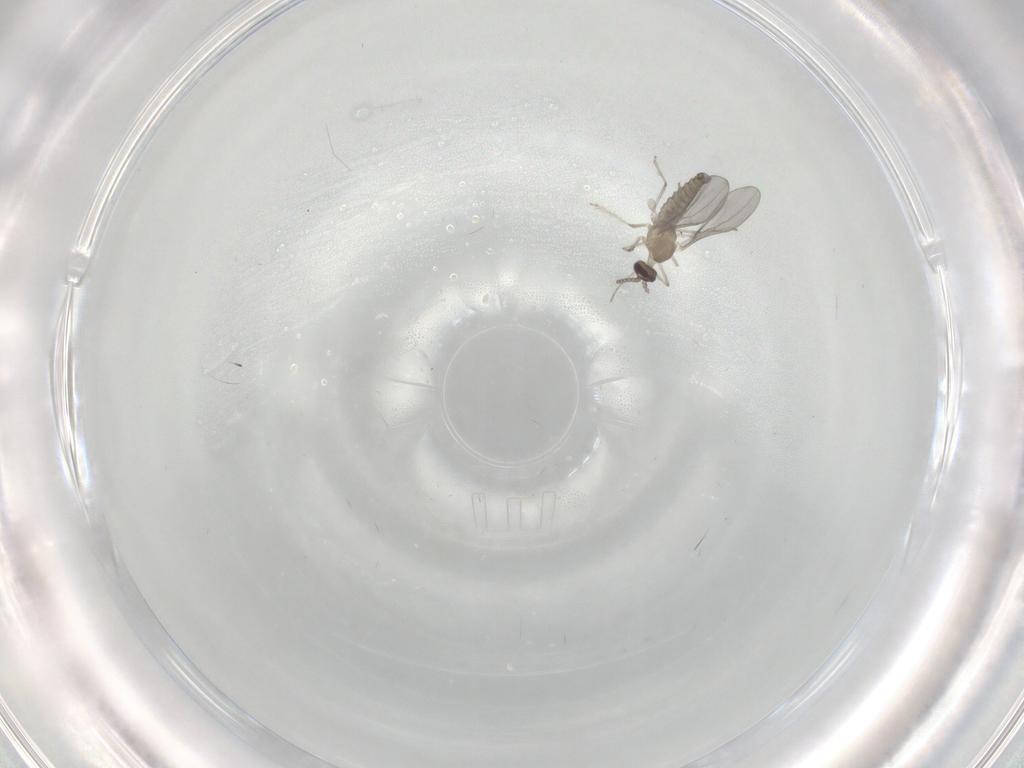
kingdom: Animalia
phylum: Arthropoda
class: Insecta
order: Diptera
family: Cecidomyiidae
